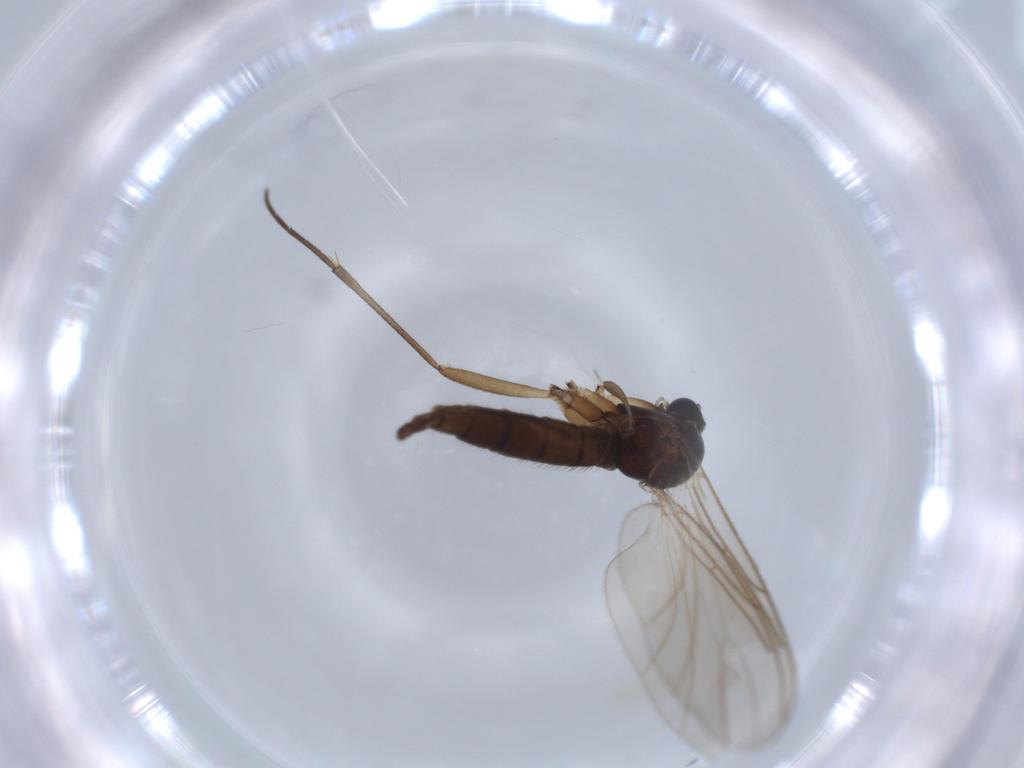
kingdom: Animalia
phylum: Arthropoda
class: Insecta
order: Diptera
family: Sciaridae
